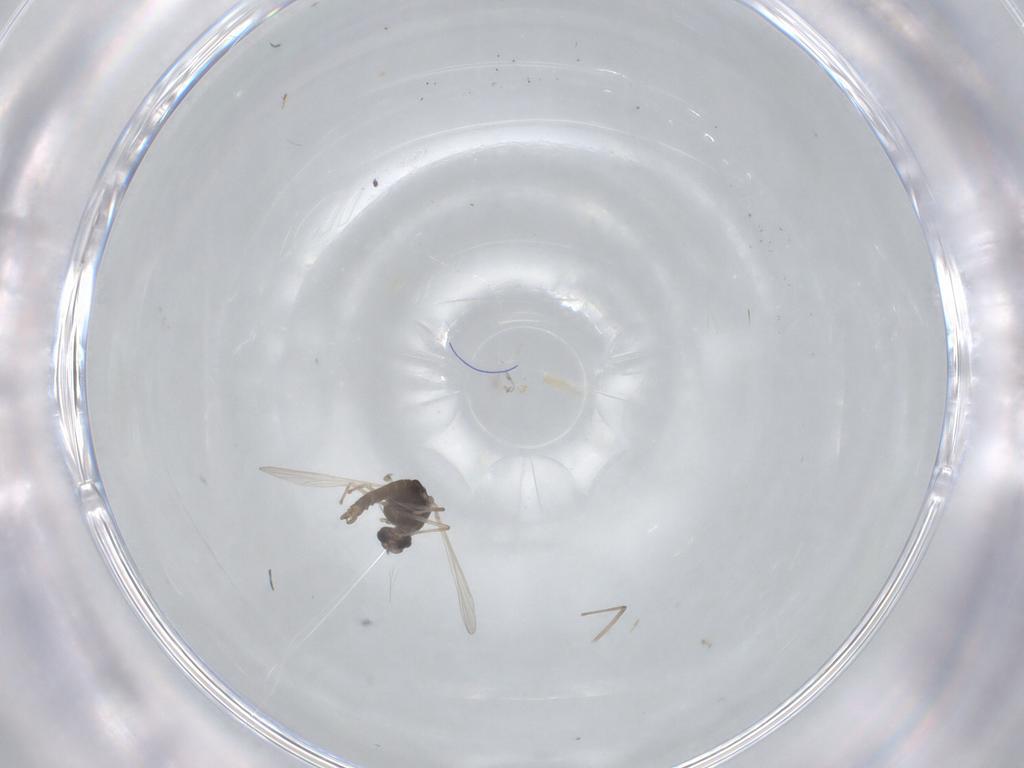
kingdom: Animalia
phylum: Arthropoda
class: Insecta
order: Diptera
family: Chironomidae
